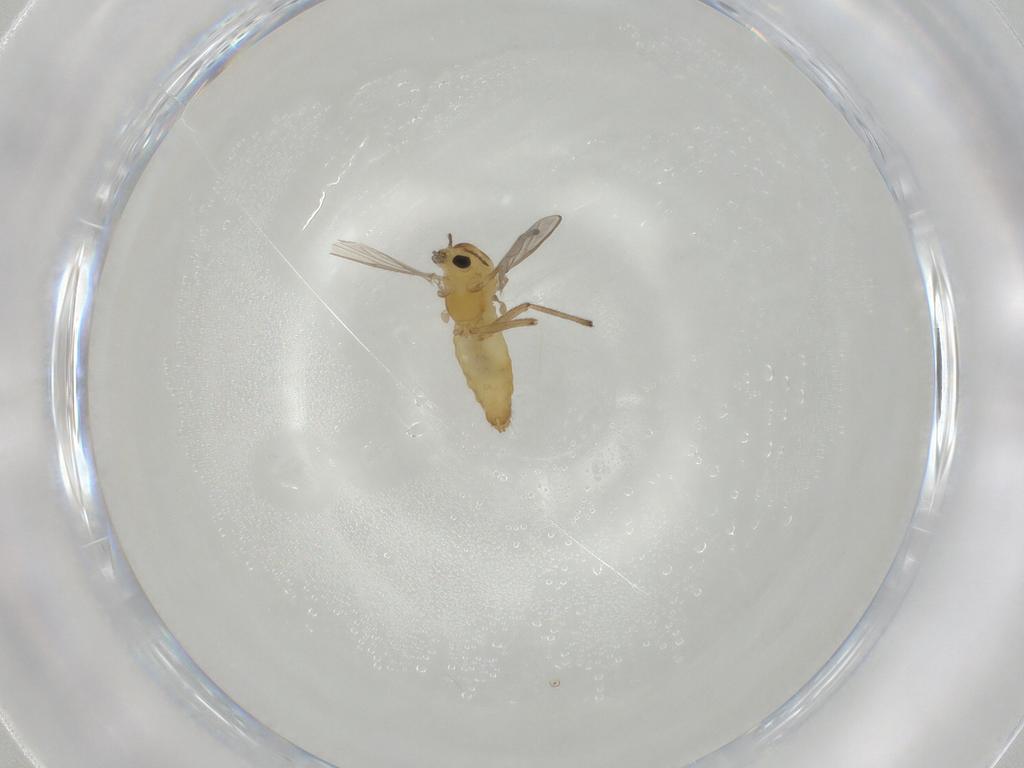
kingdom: Animalia
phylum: Arthropoda
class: Insecta
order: Diptera
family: Chironomidae
